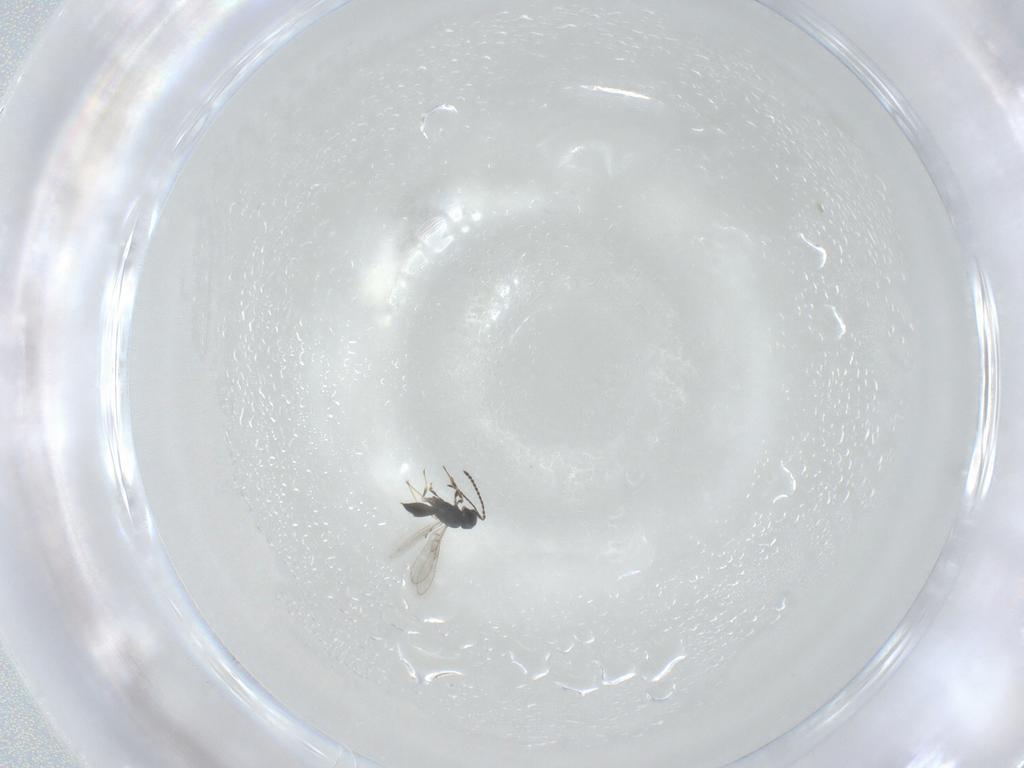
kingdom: Animalia
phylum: Arthropoda
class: Insecta
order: Hymenoptera
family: Scelionidae
